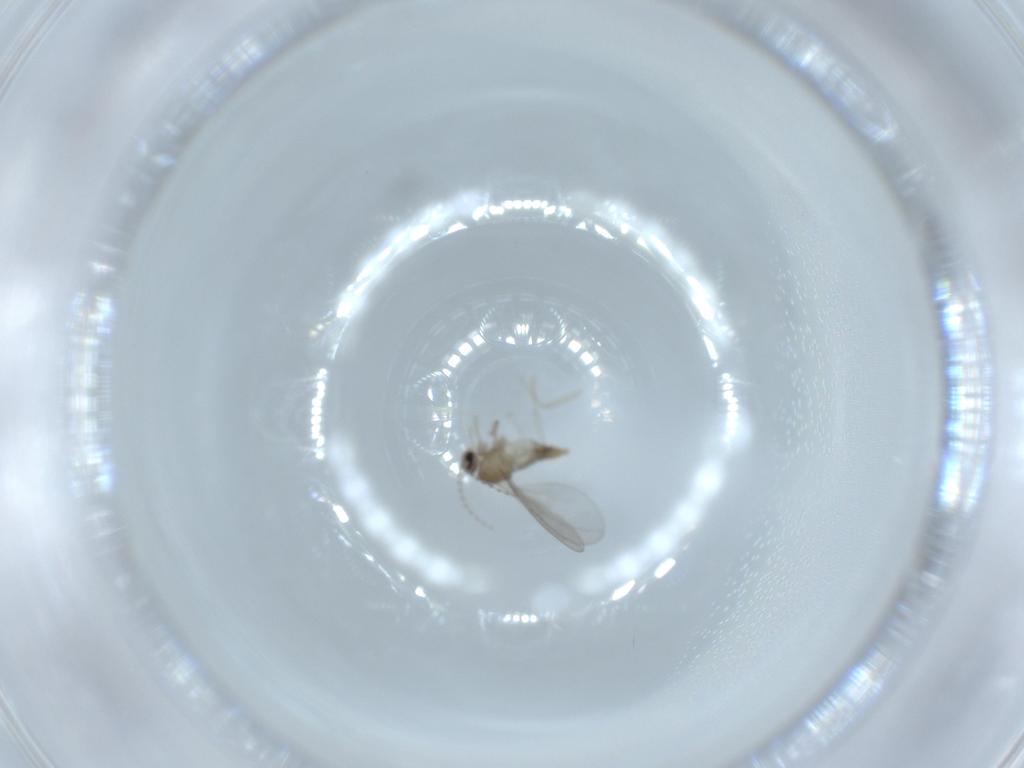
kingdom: Animalia
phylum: Arthropoda
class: Insecta
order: Diptera
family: Cecidomyiidae
